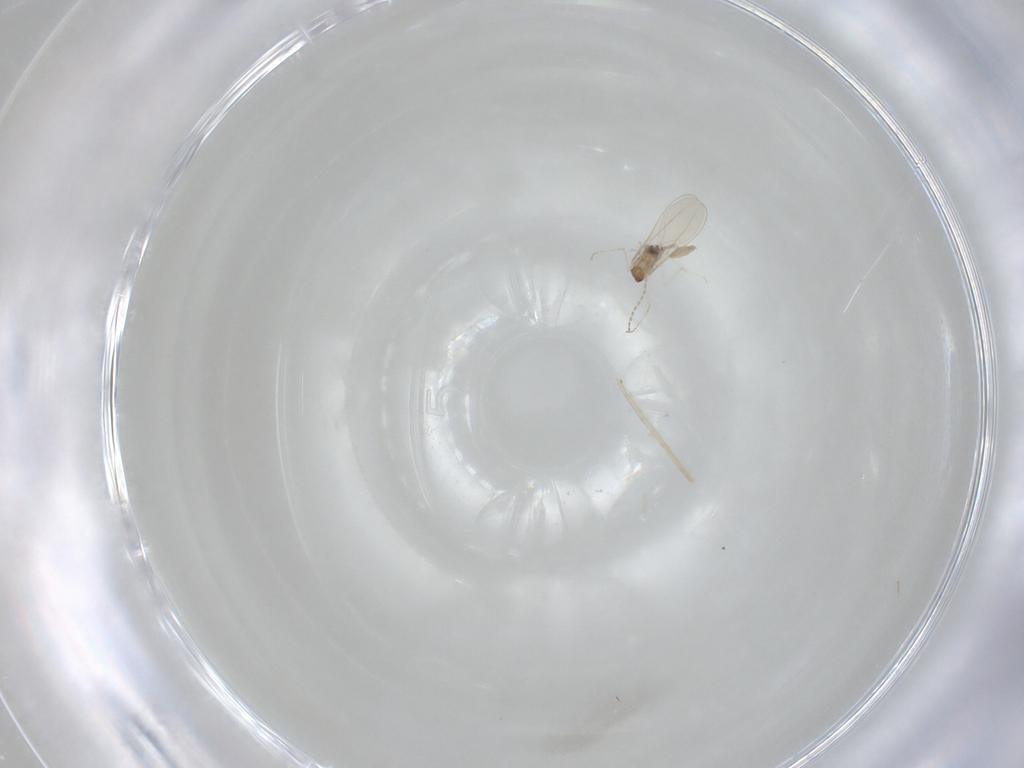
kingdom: Animalia
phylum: Arthropoda
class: Insecta
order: Diptera
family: Cecidomyiidae
